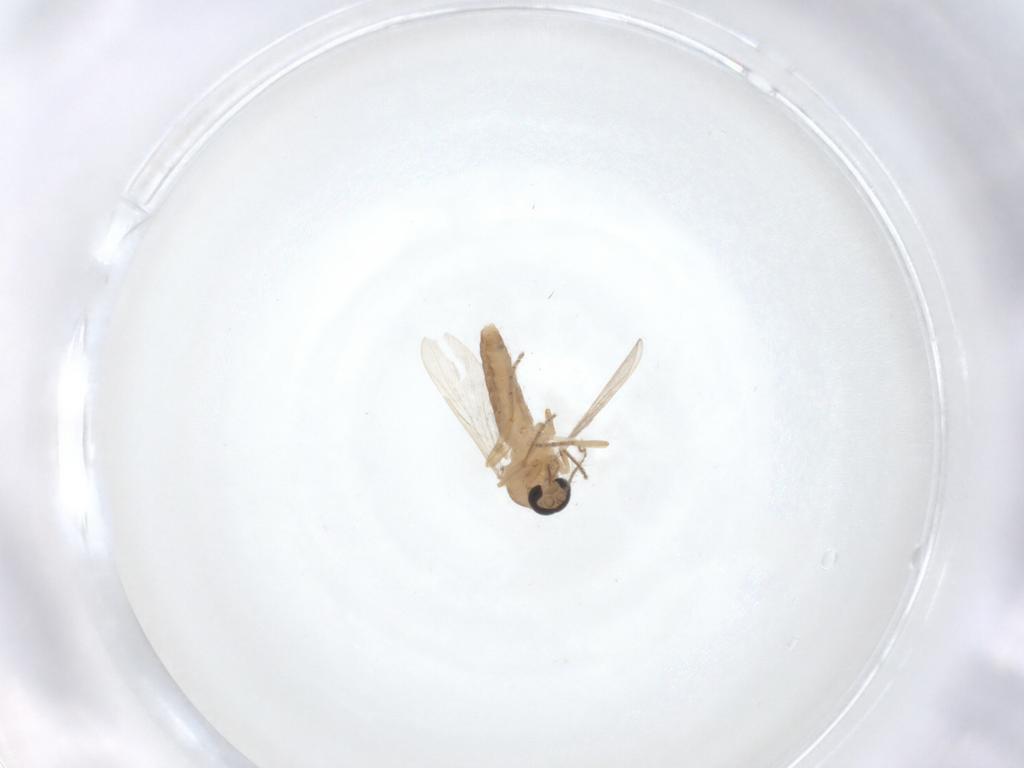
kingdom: Animalia
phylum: Arthropoda
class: Insecta
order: Diptera
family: Ceratopogonidae
